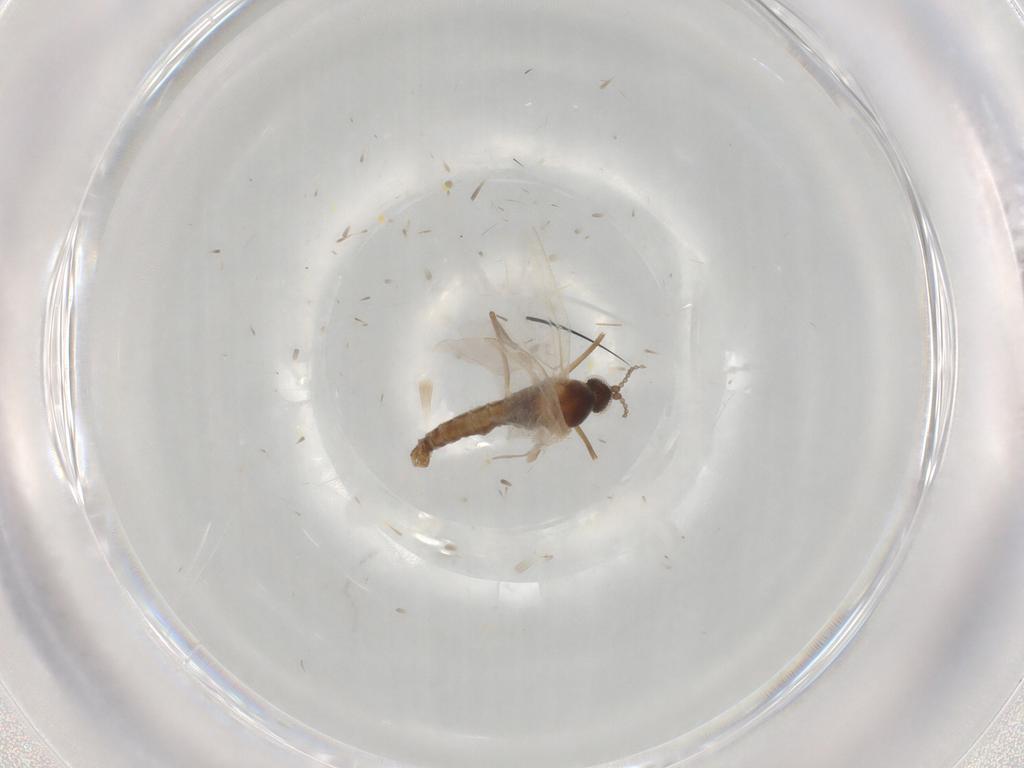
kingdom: Animalia
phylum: Arthropoda
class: Insecta
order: Diptera
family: Cecidomyiidae
